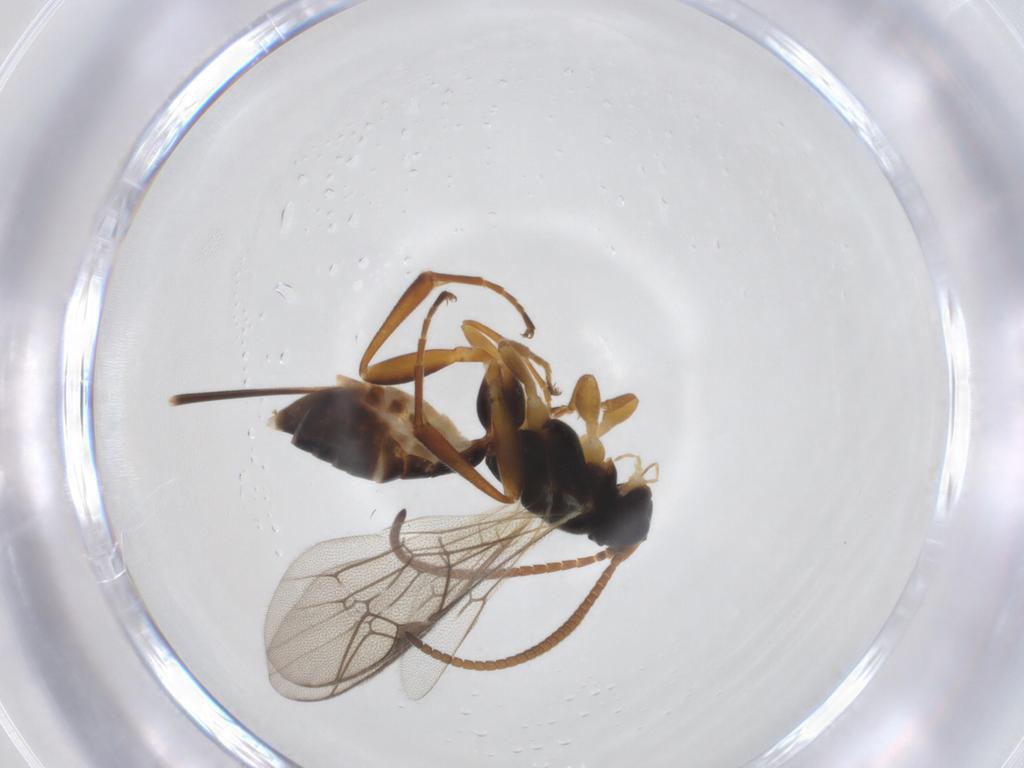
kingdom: Animalia
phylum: Arthropoda
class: Insecta
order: Hymenoptera
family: Ichneumonidae
